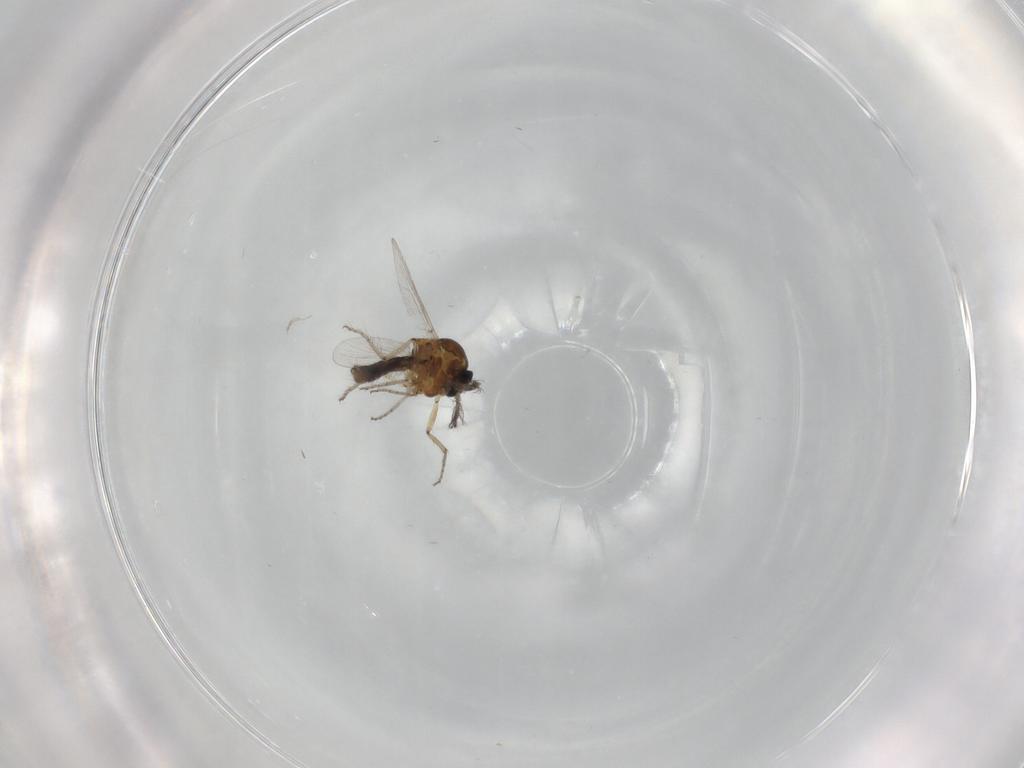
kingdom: Animalia
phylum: Arthropoda
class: Insecta
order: Diptera
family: Ceratopogonidae
